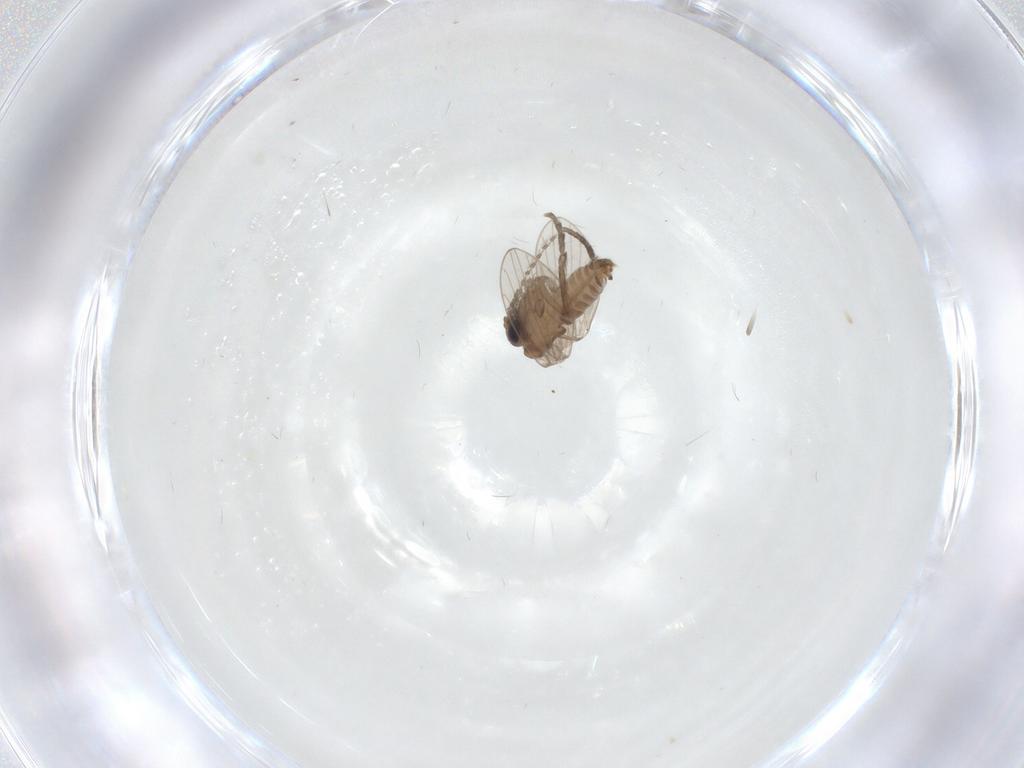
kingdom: Animalia
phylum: Arthropoda
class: Insecta
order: Diptera
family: Psychodidae
